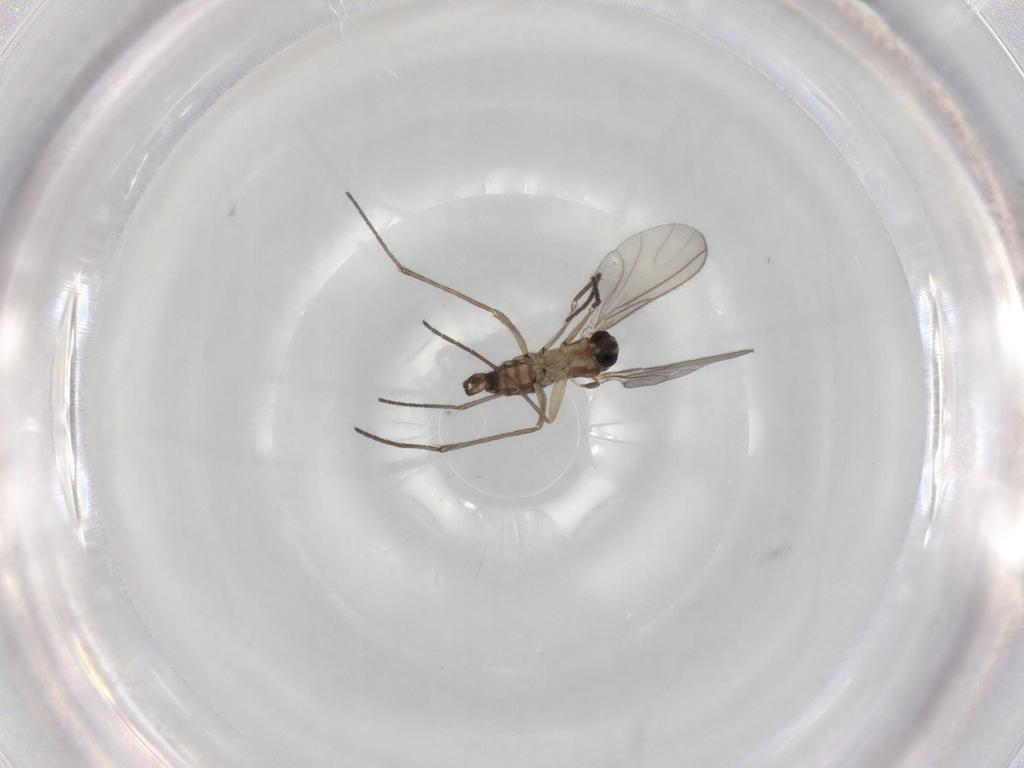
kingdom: Animalia
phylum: Arthropoda
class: Insecta
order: Diptera
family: Sciaridae
